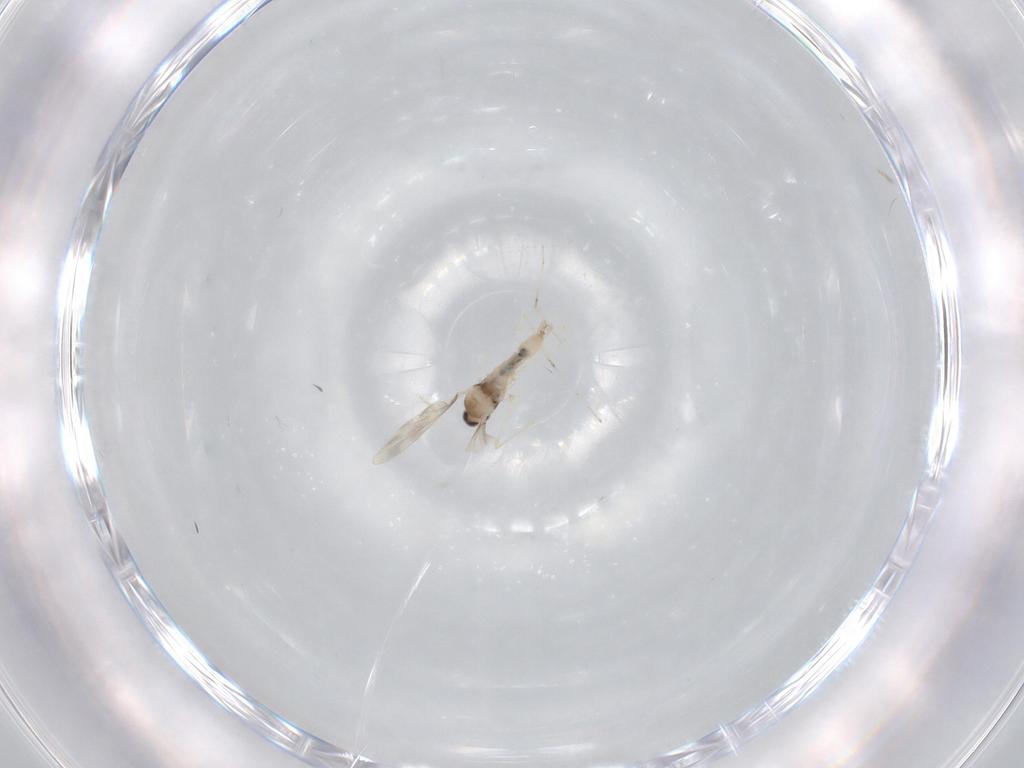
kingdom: Animalia
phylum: Arthropoda
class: Insecta
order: Diptera
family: Cecidomyiidae
